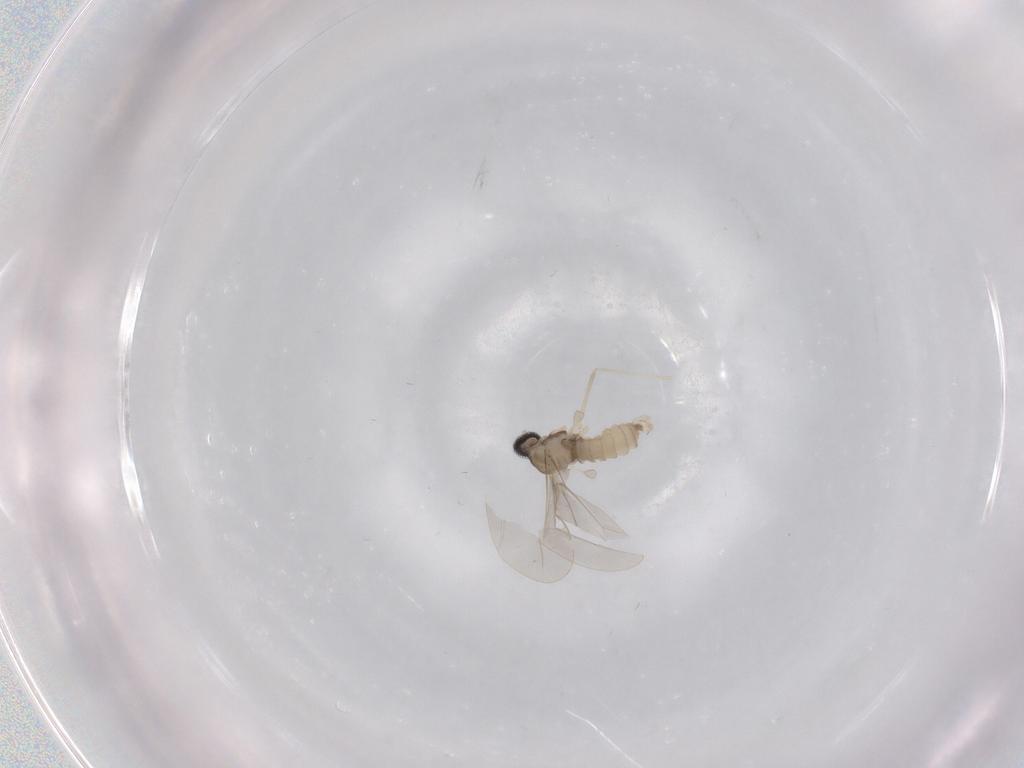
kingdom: Animalia
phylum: Arthropoda
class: Insecta
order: Diptera
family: Cecidomyiidae
